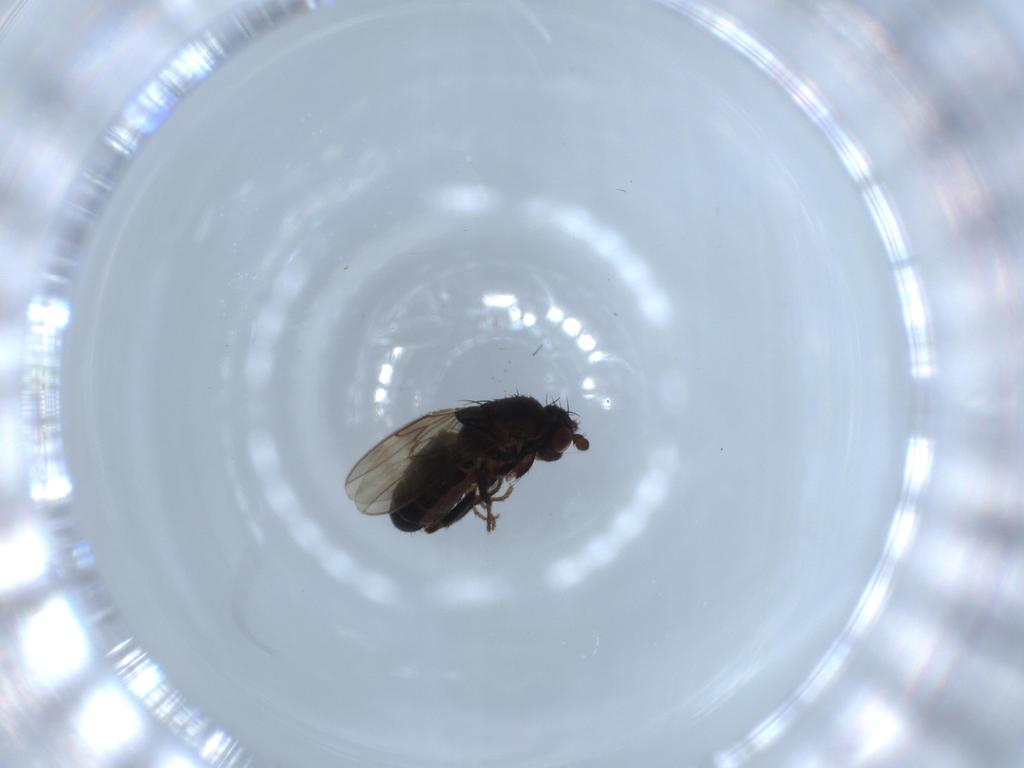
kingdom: Animalia
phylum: Arthropoda
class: Insecta
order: Diptera
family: Sphaeroceridae
